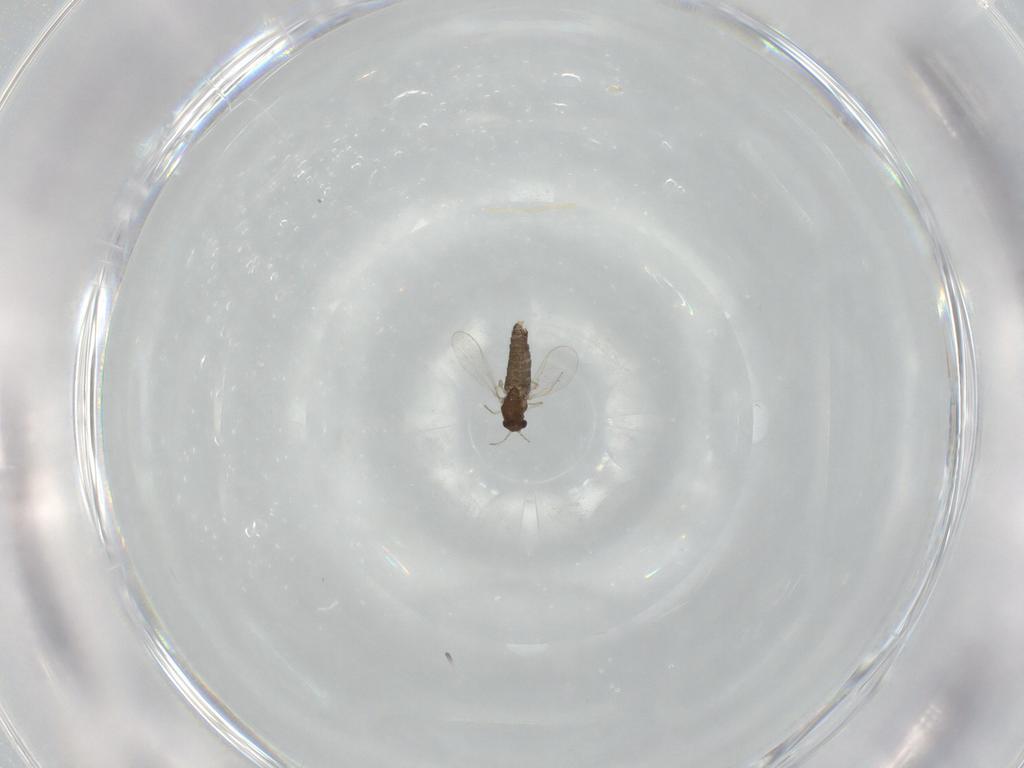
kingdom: Animalia
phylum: Arthropoda
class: Insecta
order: Diptera
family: Chironomidae
